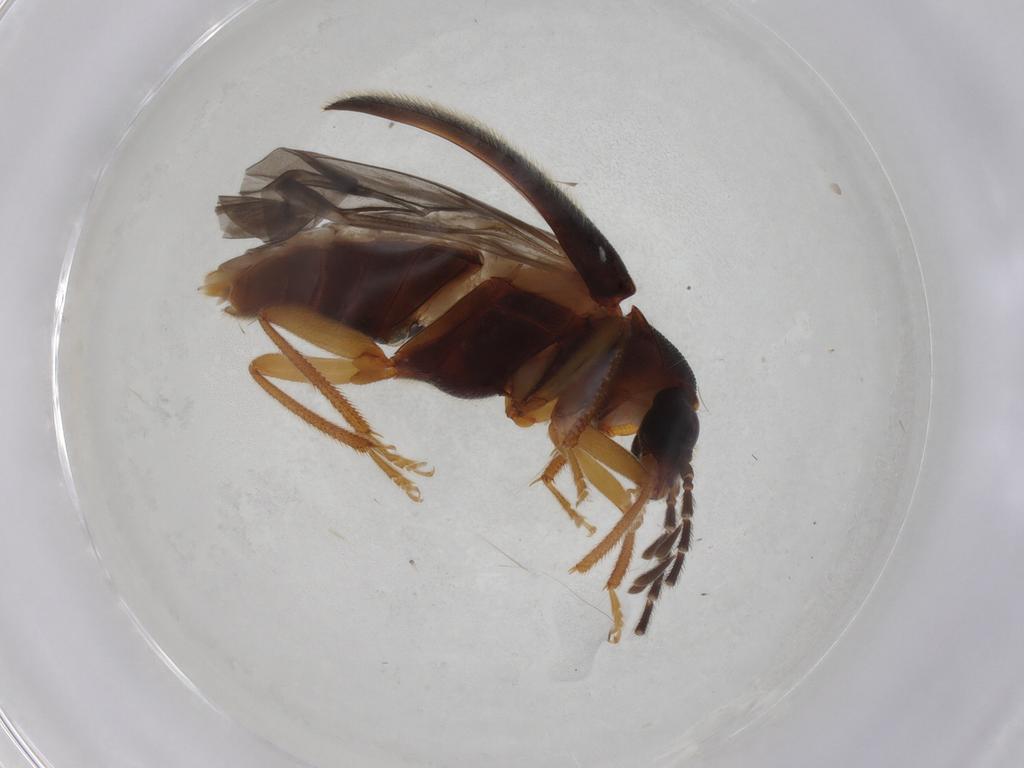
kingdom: Animalia
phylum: Arthropoda
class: Insecta
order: Coleoptera
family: Ptilodactylidae
